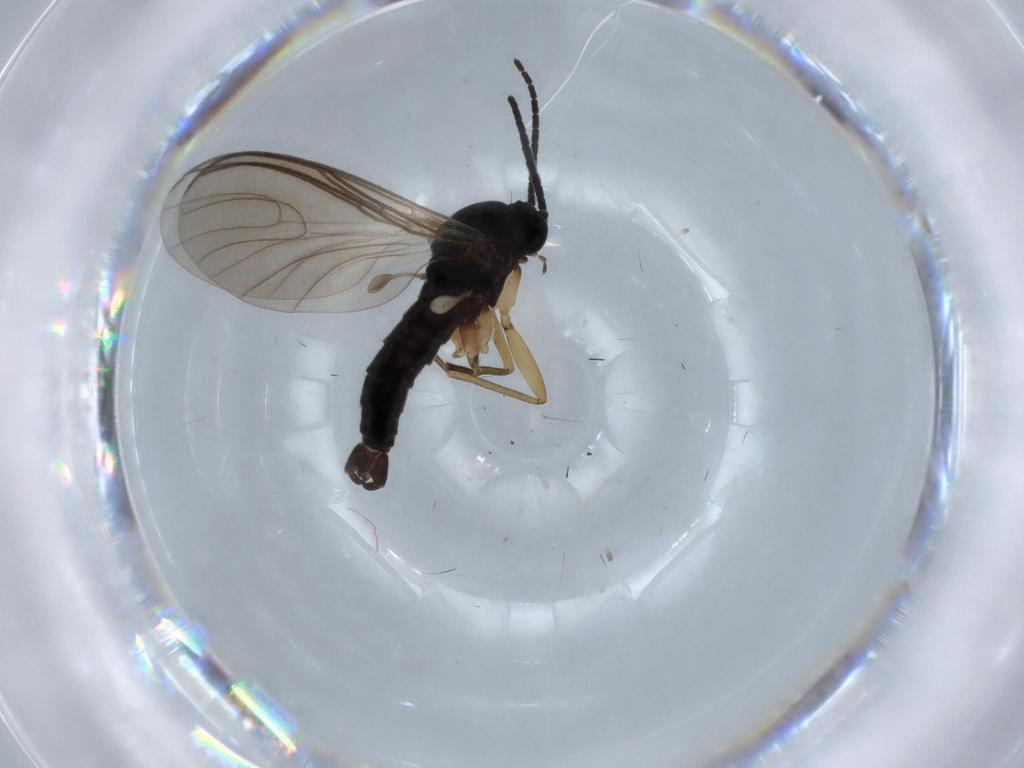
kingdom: Animalia
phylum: Arthropoda
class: Insecta
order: Diptera
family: Sciaridae
